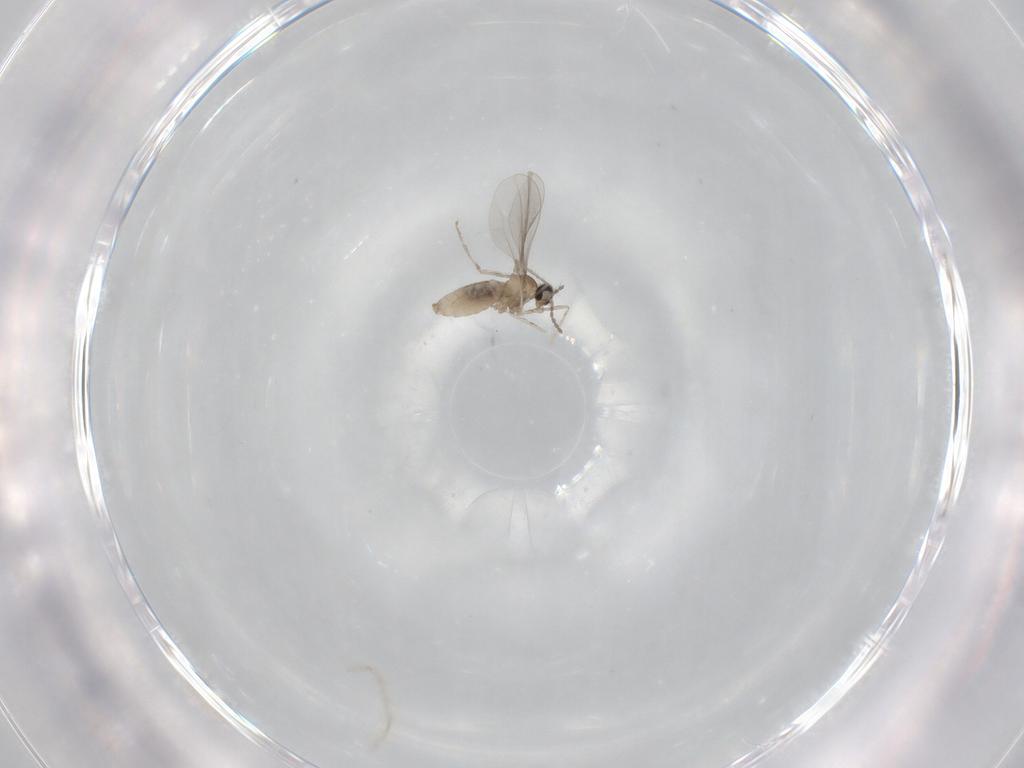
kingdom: Animalia
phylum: Arthropoda
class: Insecta
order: Diptera
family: Cecidomyiidae
